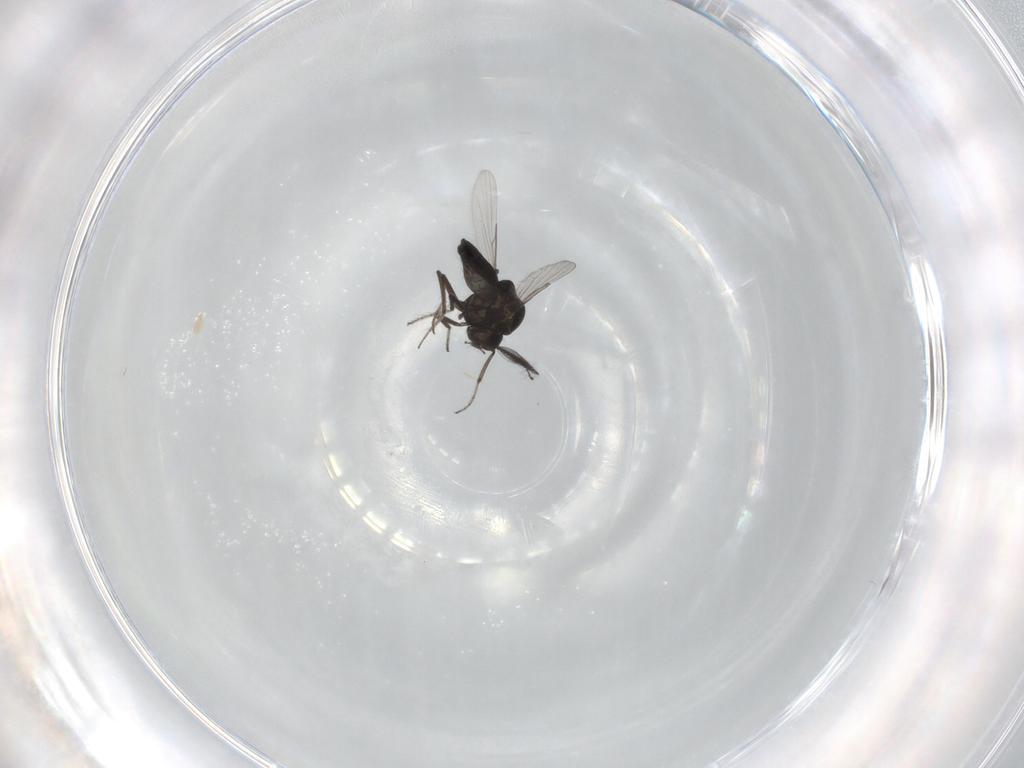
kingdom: Animalia
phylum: Arthropoda
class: Insecta
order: Diptera
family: Ceratopogonidae
